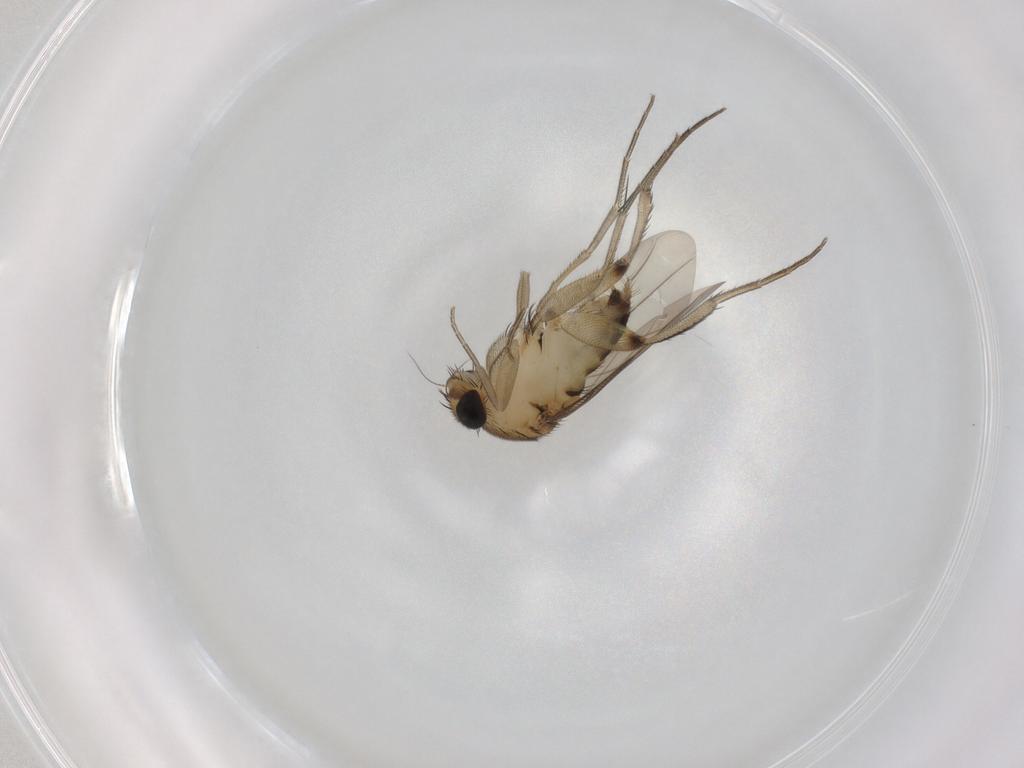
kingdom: Animalia
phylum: Arthropoda
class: Insecta
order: Diptera
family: Phoridae
